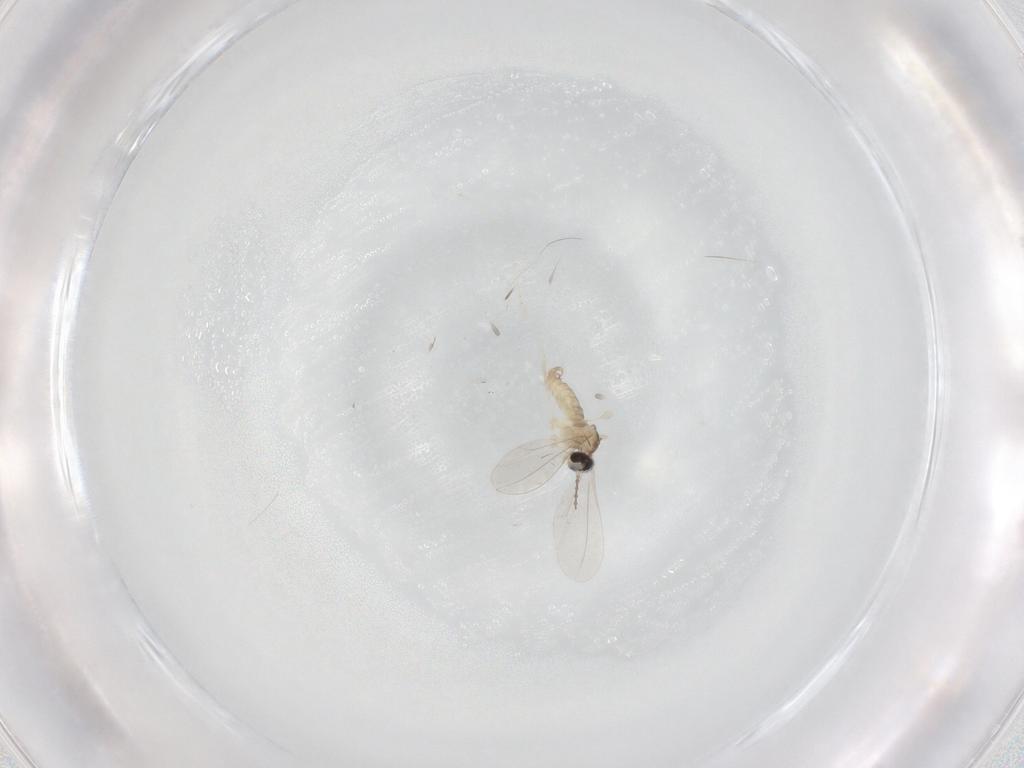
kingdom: Animalia
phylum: Arthropoda
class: Insecta
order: Diptera
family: Cecidomyiidae
